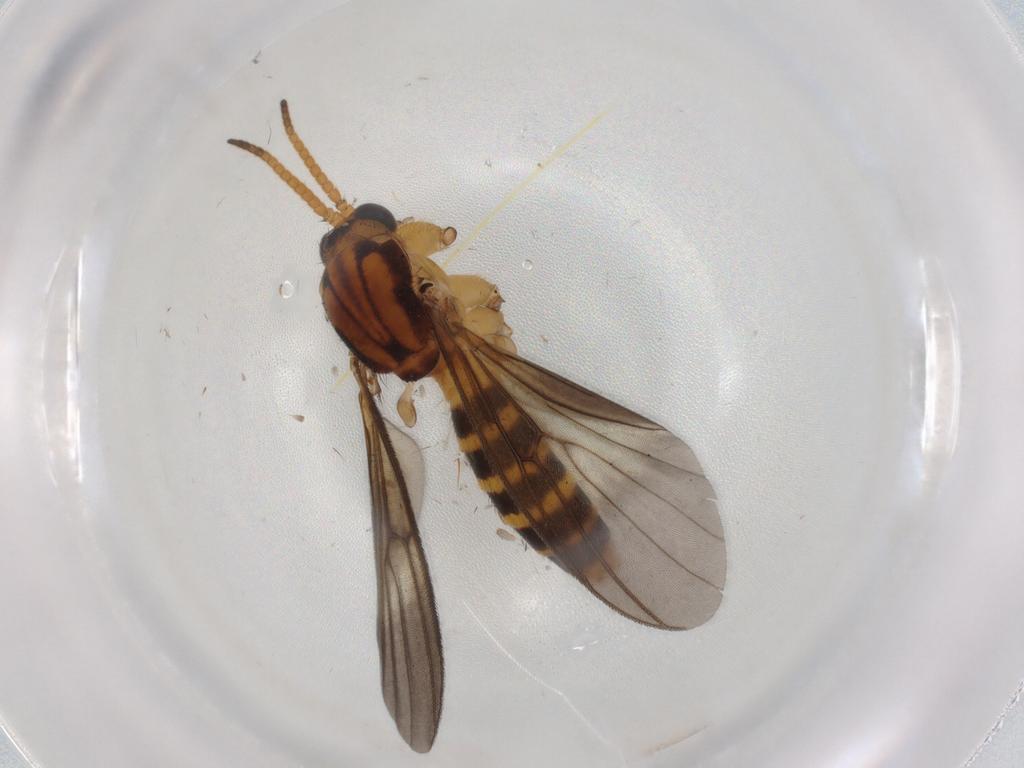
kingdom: Animalia
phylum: Arthropoda
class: Insecta
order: Diptera
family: Mycetophilidae
